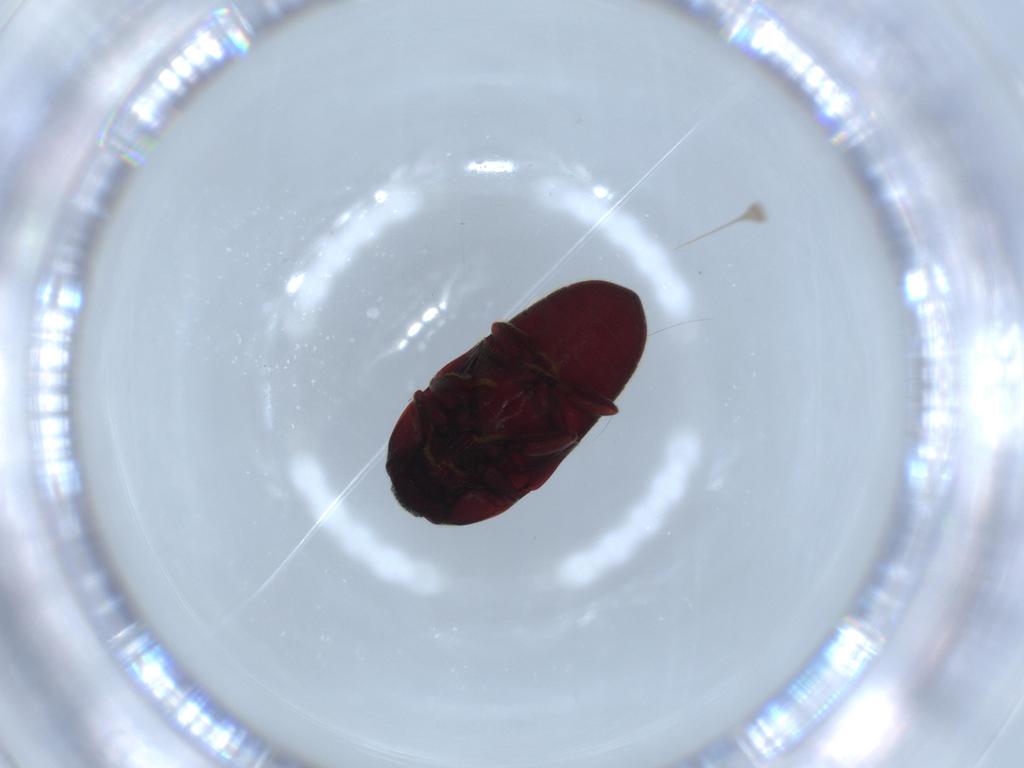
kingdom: Animalia
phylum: Arthropoda
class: Insecta
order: Coleoptera
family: Throscidae
